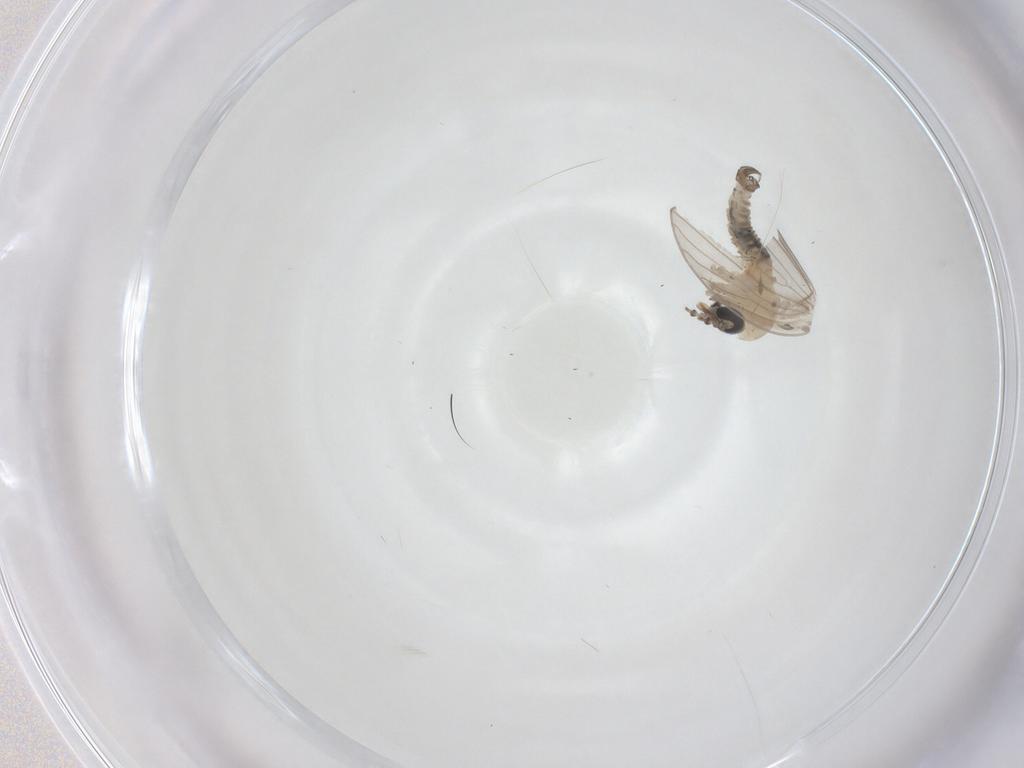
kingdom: Animalia
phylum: Arthropoda
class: Insecta
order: Diptera
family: Psychodidae
